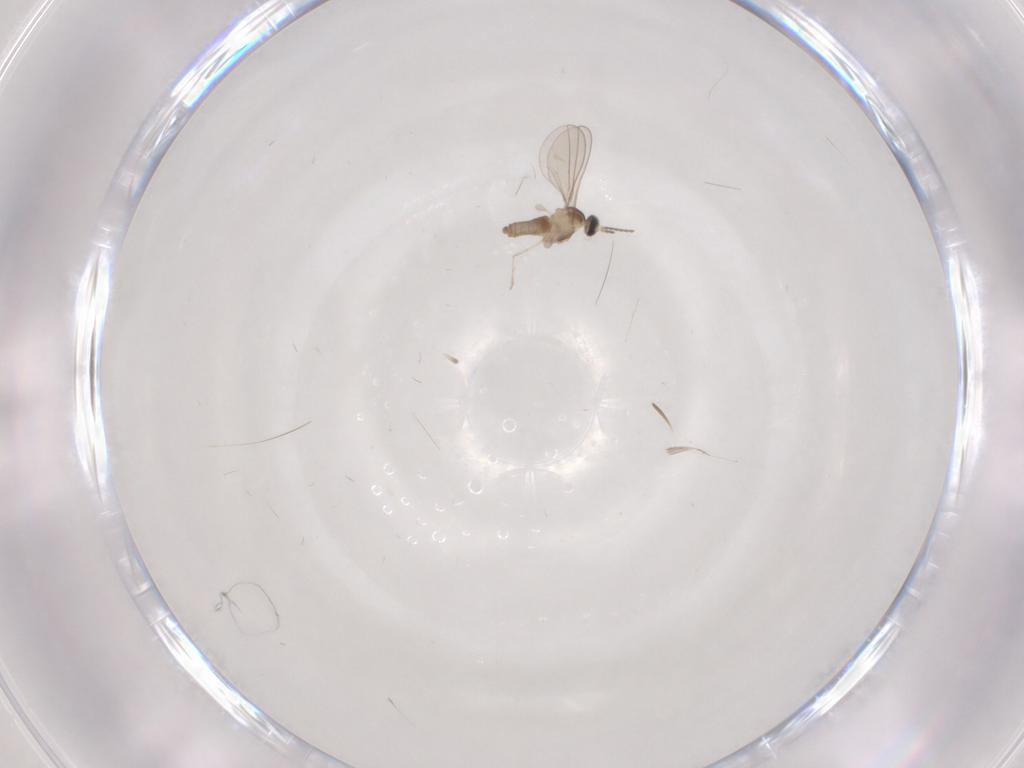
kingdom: Animalia
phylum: Arthropoda
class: Insecta
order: Diptera
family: Cecidomyiidae
